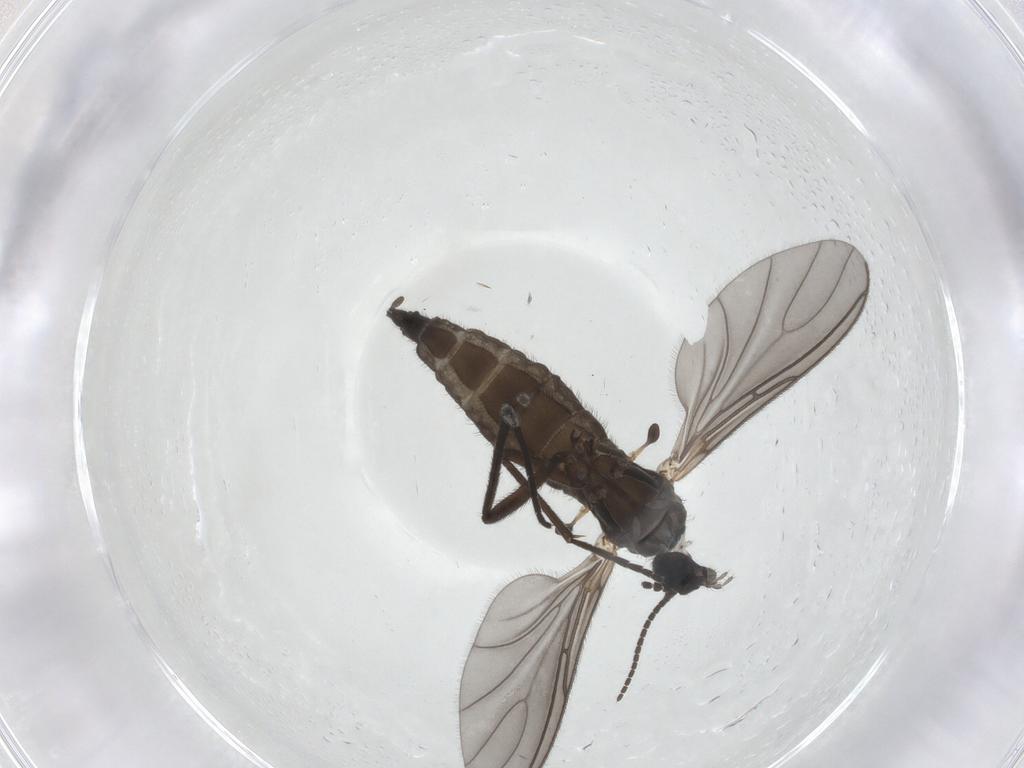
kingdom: Animalia
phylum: Arthropoda
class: Insecta
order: Diptera
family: Sciaridae
